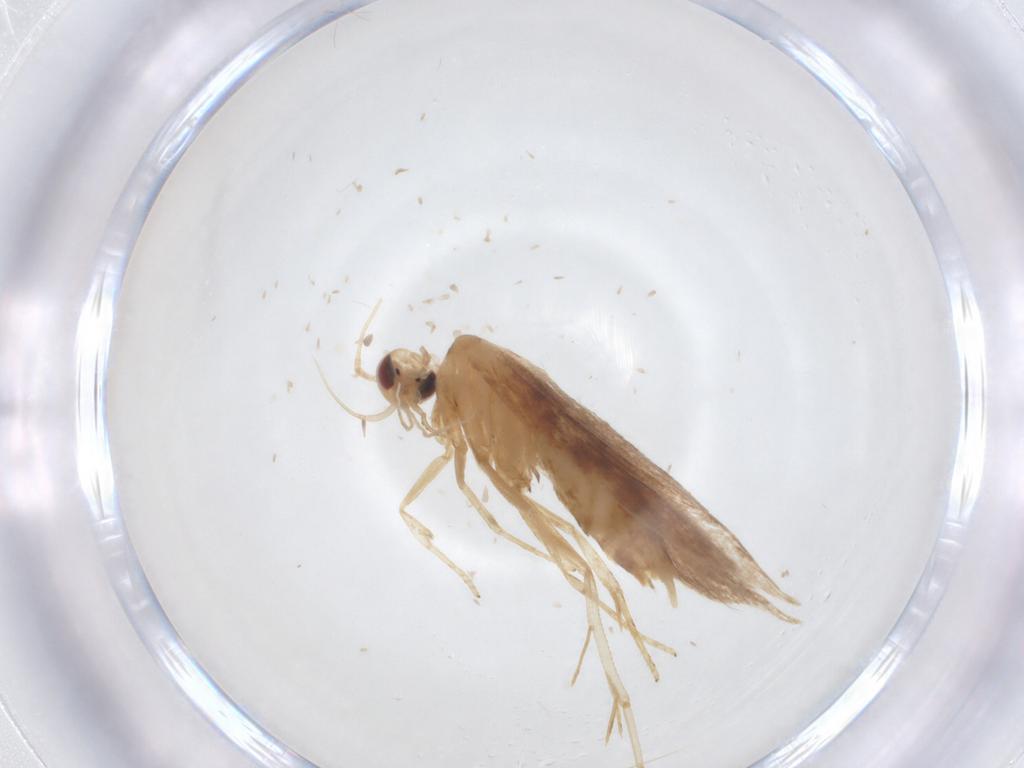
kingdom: Animalia
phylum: Arthropoda
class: Insecta
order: Lepidoptera
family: Cosmopterigidae
